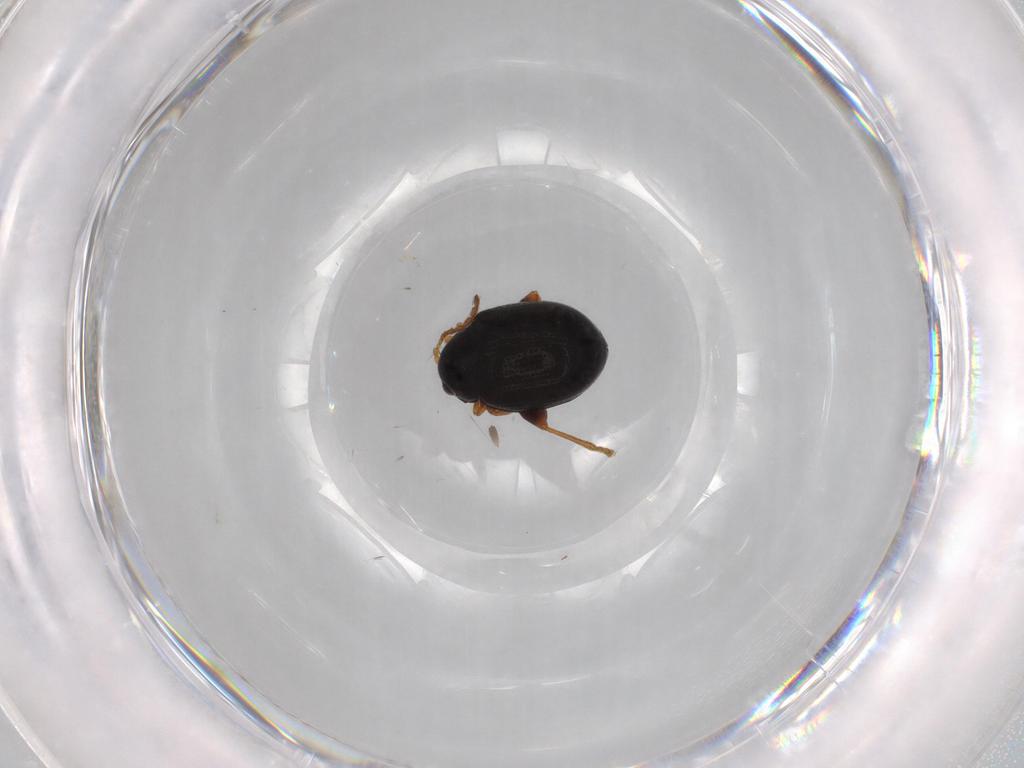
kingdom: Animalia
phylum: Arthropoda
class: Insecta
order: Coleoptera
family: Chrysomelidae
